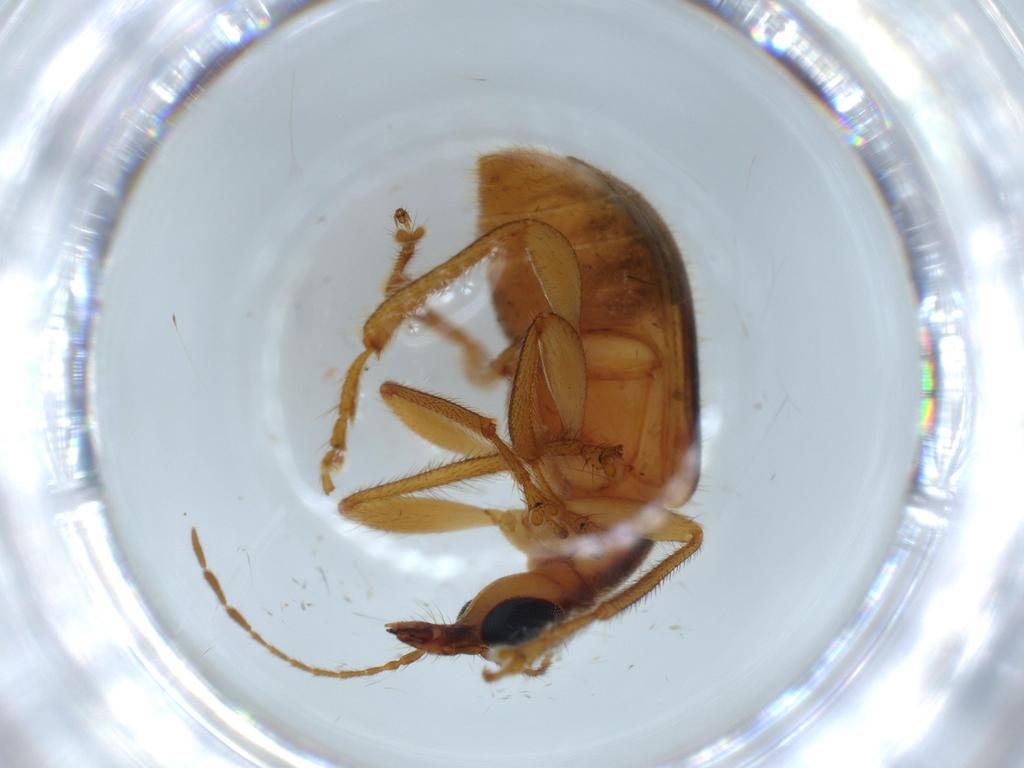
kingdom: Animalia
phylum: Arthropoda
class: Insecta
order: Coleoptera
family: Attelabidae
